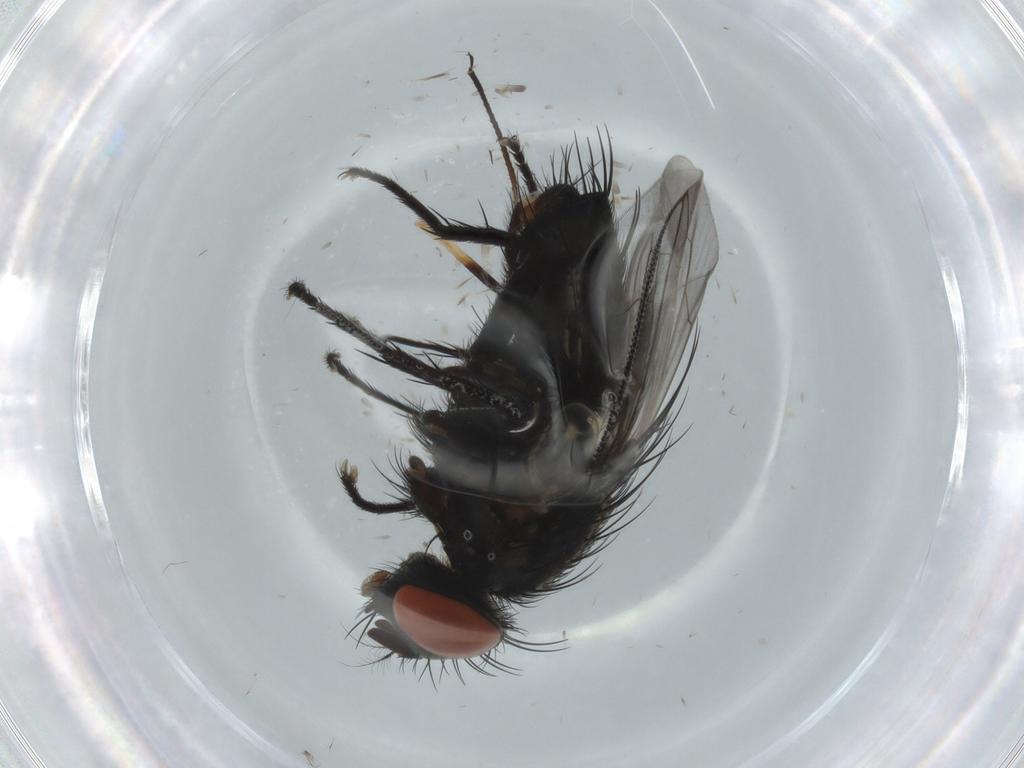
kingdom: Animalia
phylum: Arthropoda
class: Insecta
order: Diptera
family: Sarcophagidae
